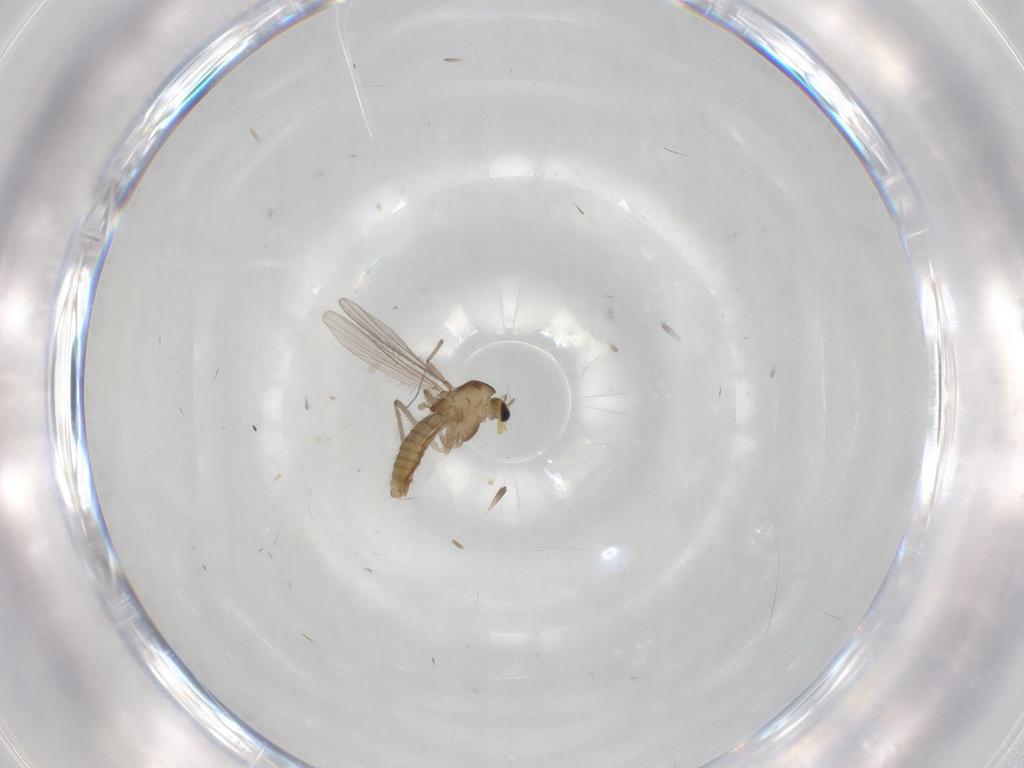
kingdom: Animalia
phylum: Arthropoda
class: Insecta
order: Diptera
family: Chironomidae
